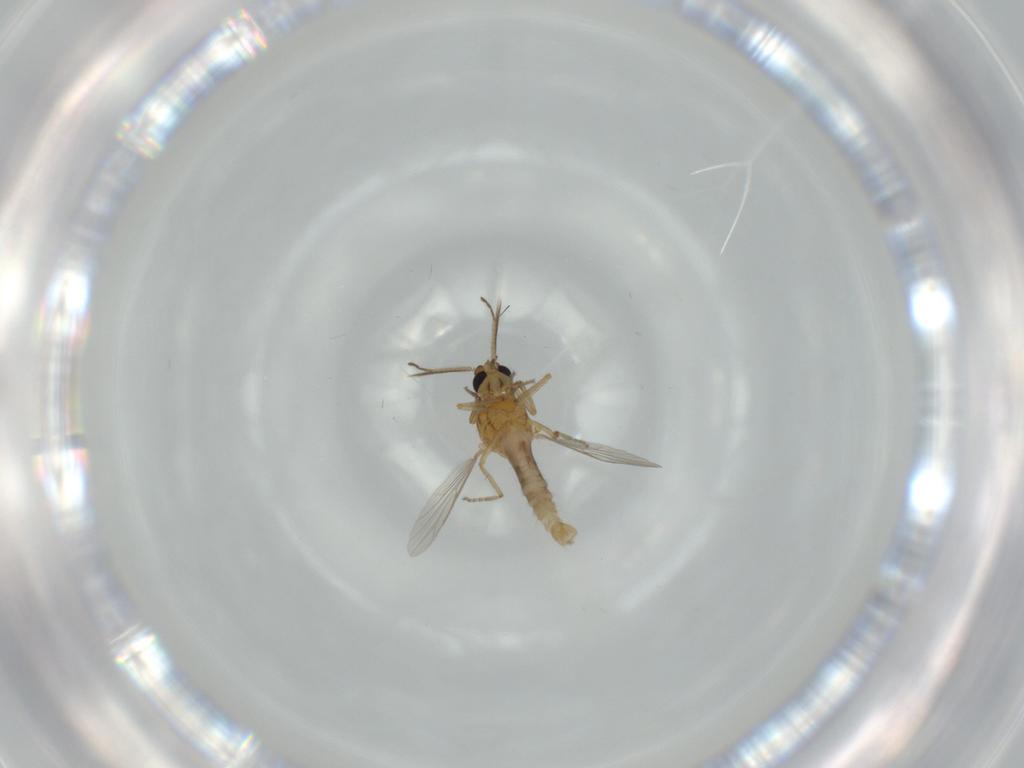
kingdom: Animalia
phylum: Arthropoda
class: Insecta
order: Diptera
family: Ceratopogonidae
